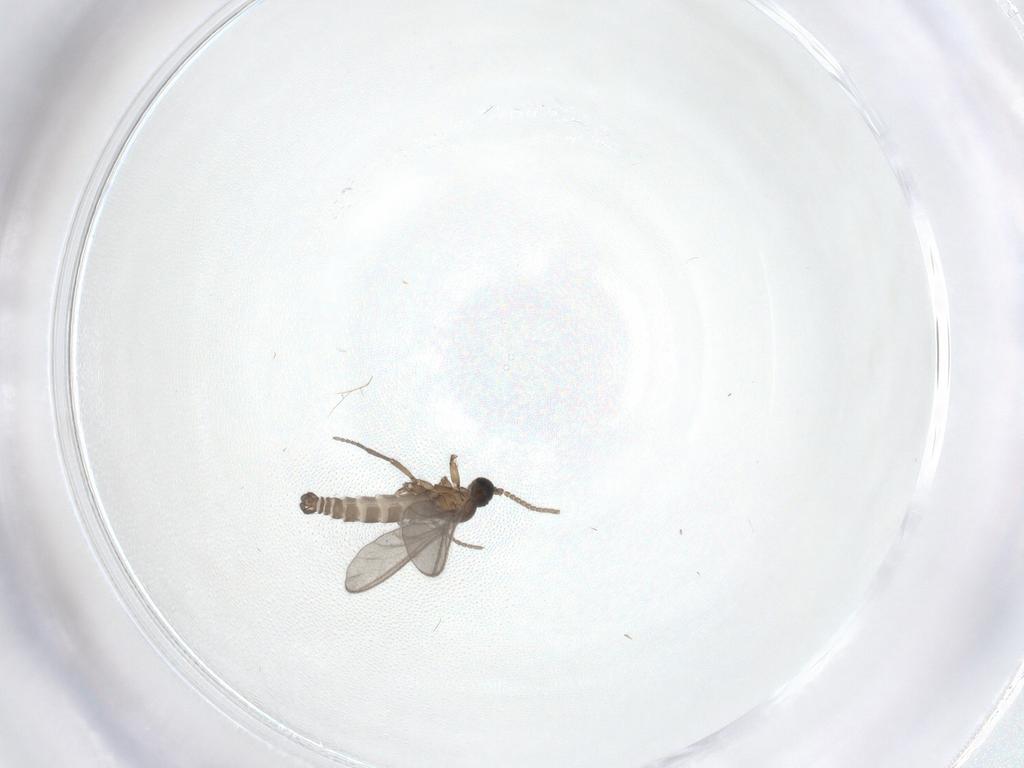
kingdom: Animalia
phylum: Arthropoda
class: Insecta
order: Diptera
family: Sciaridae
